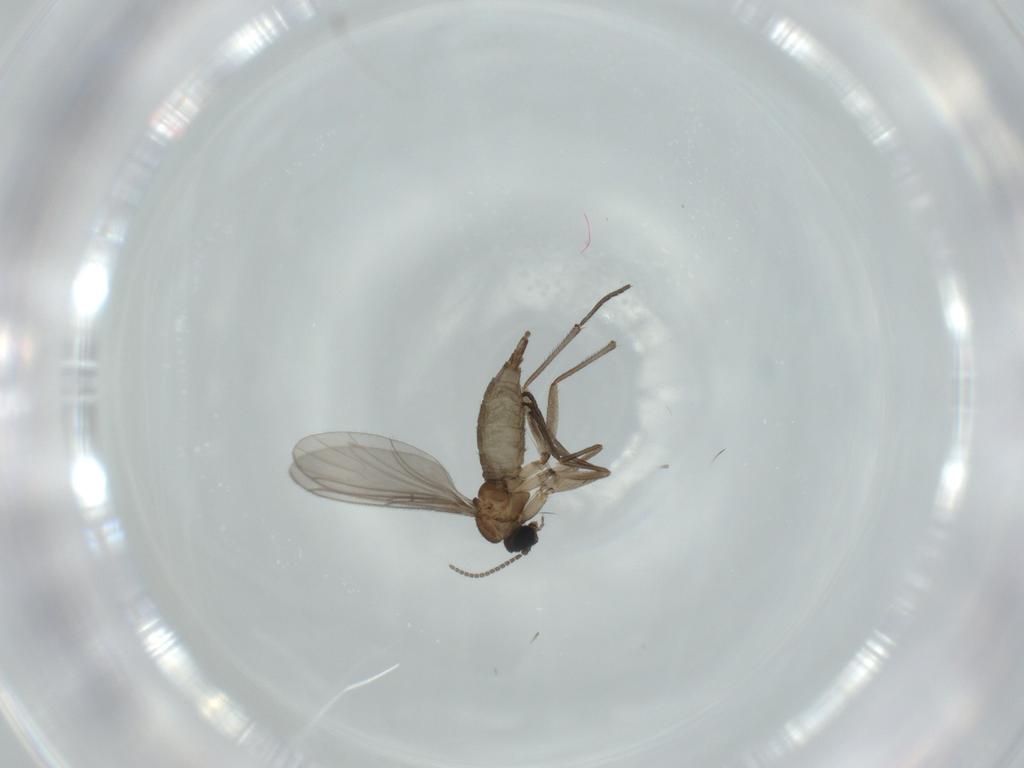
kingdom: Animalia
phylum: Arthropoda
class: Insecta
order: Diptera
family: Sciaridae
